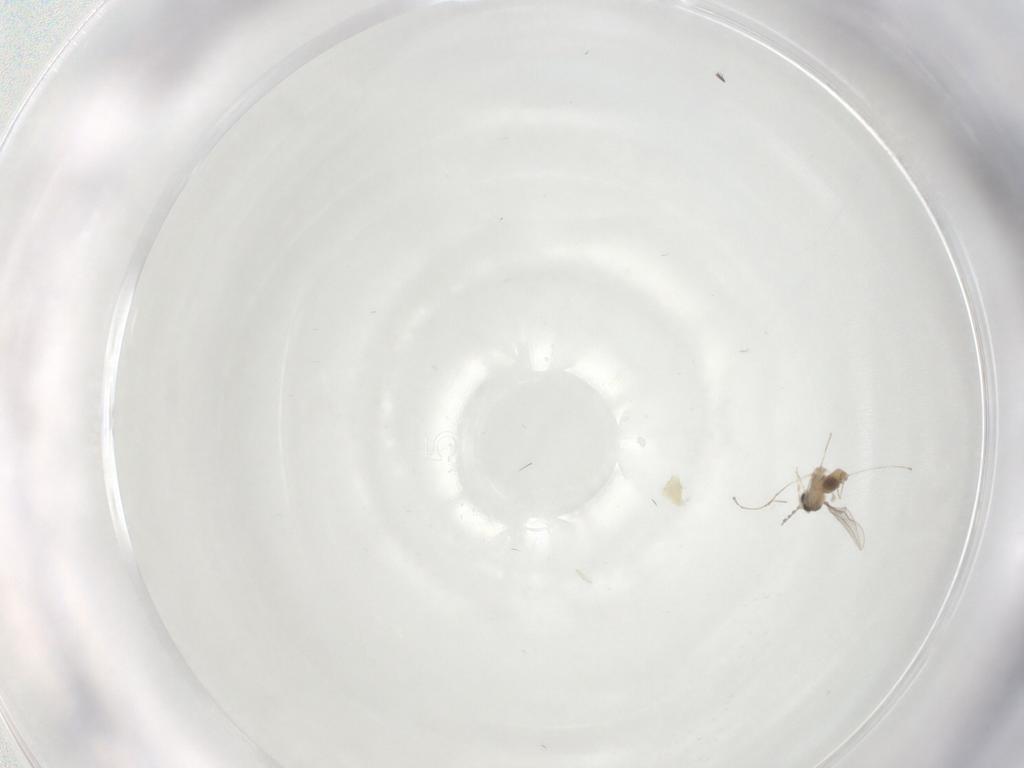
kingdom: Animalia
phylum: Arthropoda
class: Insecta
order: Diptera
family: Cecidomyiidae
